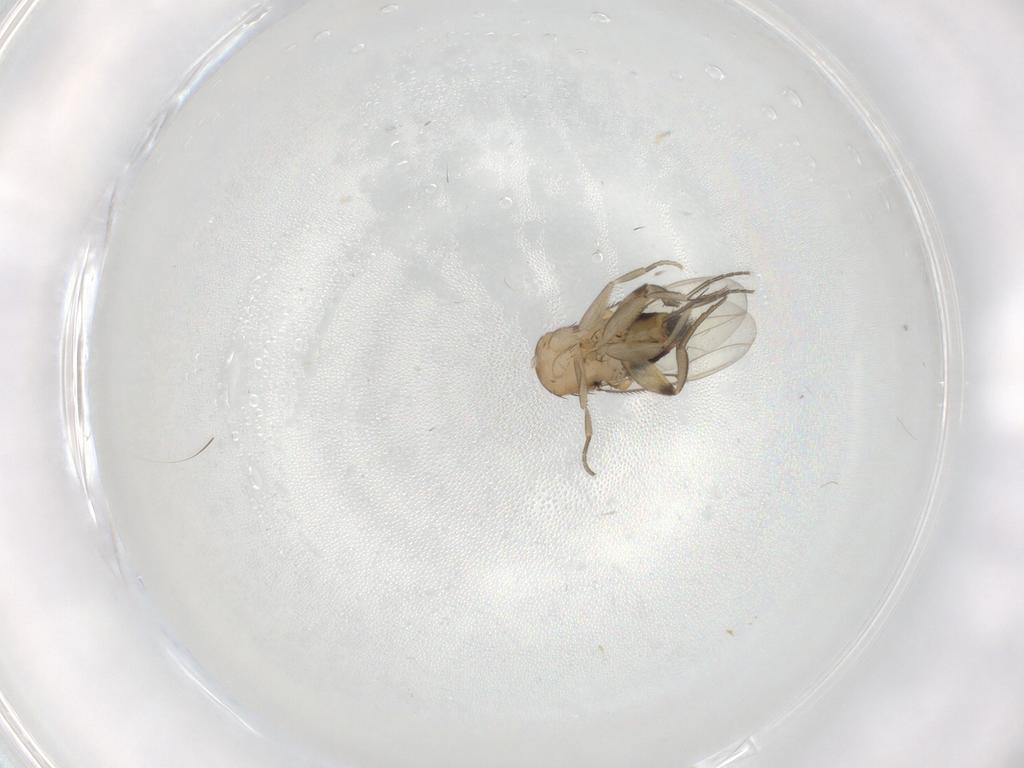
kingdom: Animalia
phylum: Arthropoda
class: Insecta
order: Diptera
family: Phoridae
